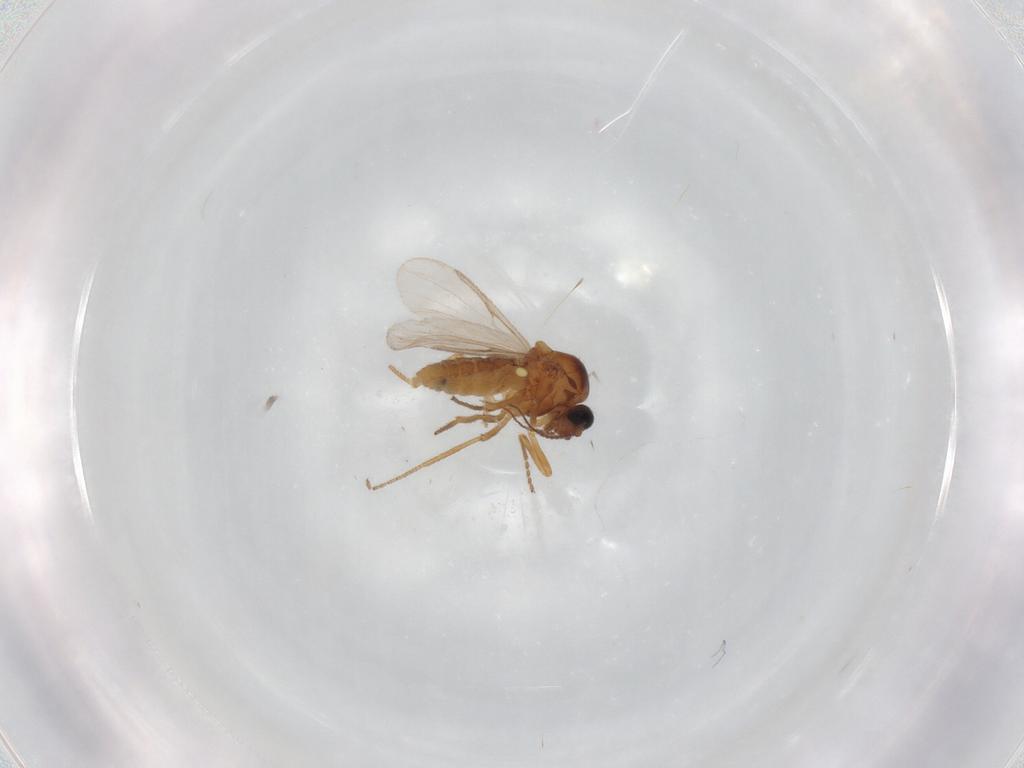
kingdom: Animalia
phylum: Arthropoda
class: Insecta
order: Diptera
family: Ceratopogonidae
